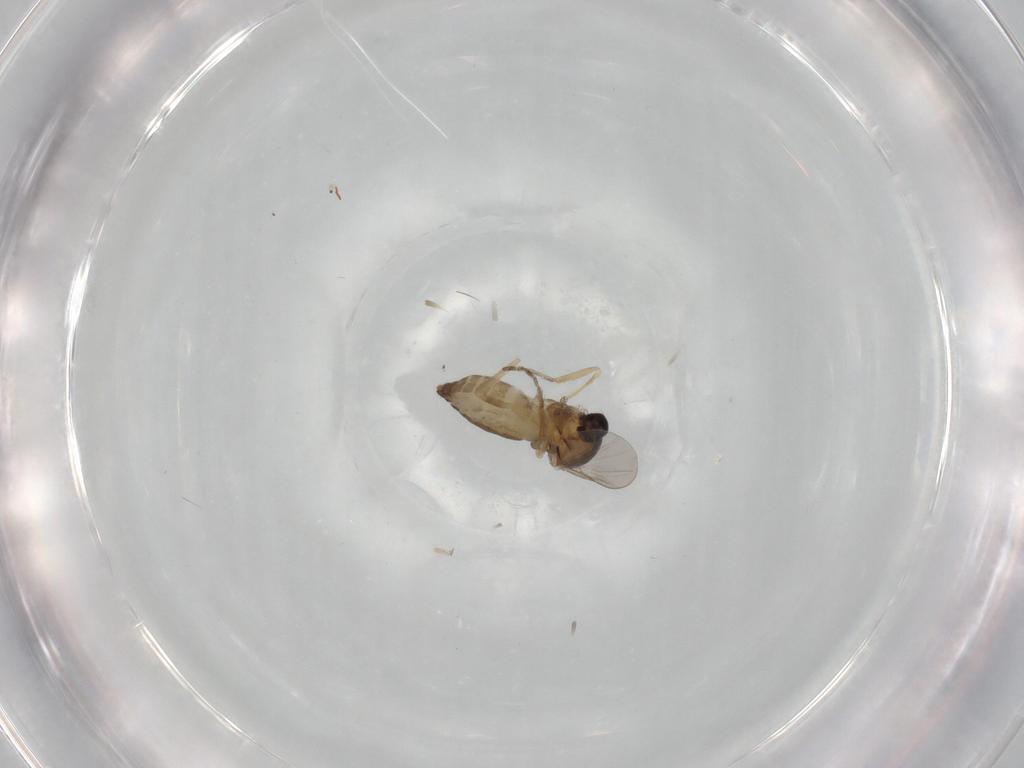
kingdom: Animalia
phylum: Arthropoda
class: Insecta
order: Diptera
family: Ceratopogonidae
